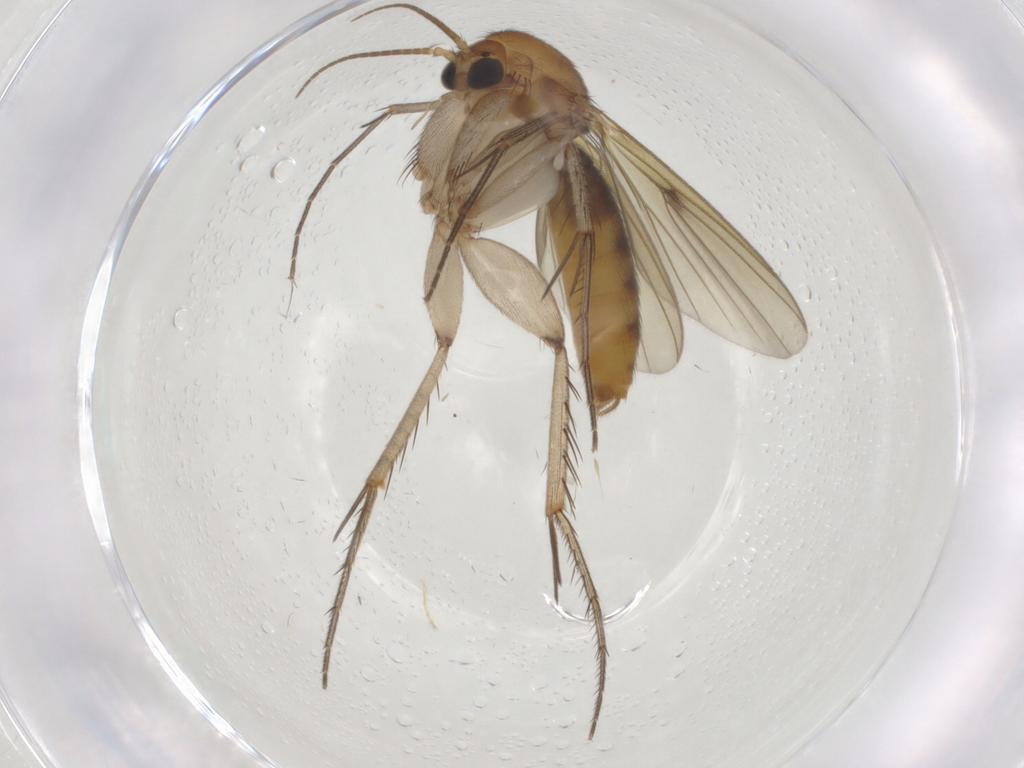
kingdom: Animalia
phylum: Arthropoda
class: Insecta
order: Diptera
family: Mycetophilidae
